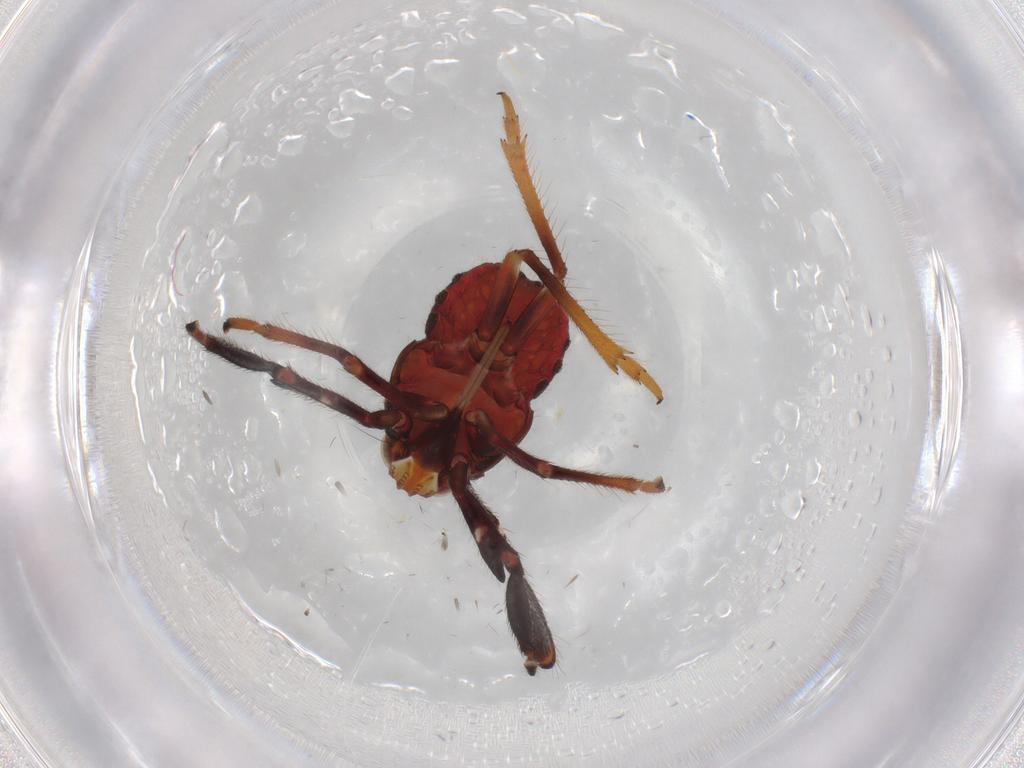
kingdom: Animalia
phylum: Arthropoda
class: Insecta
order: Hemiptera
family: Caliscelidae
